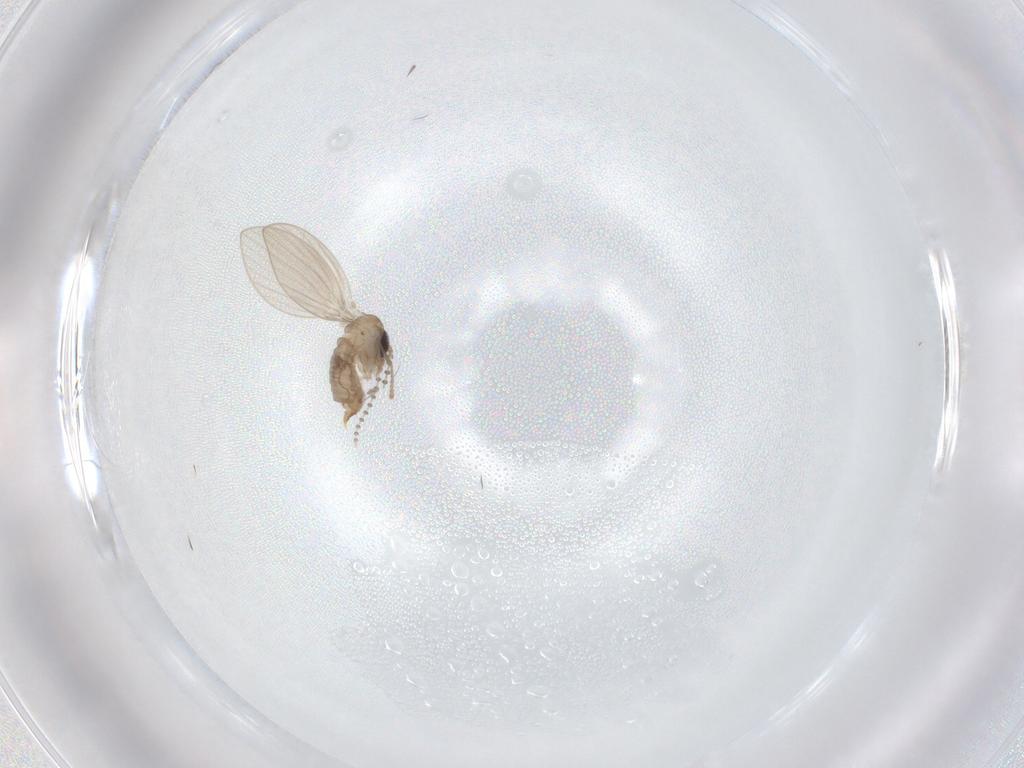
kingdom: Animalia
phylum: Arthropoda
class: Insecta
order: Diptera
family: Psychodidae
